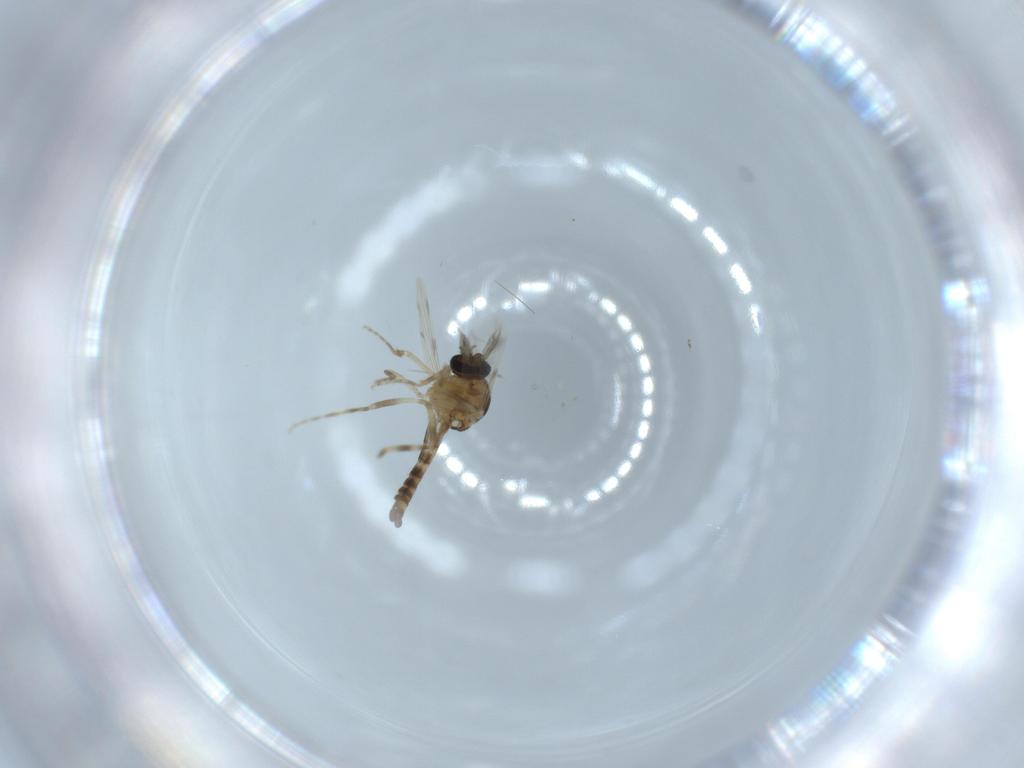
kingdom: Animalia
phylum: Arthropoda
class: Insecta
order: Diptera
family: Ceratopogonidae
